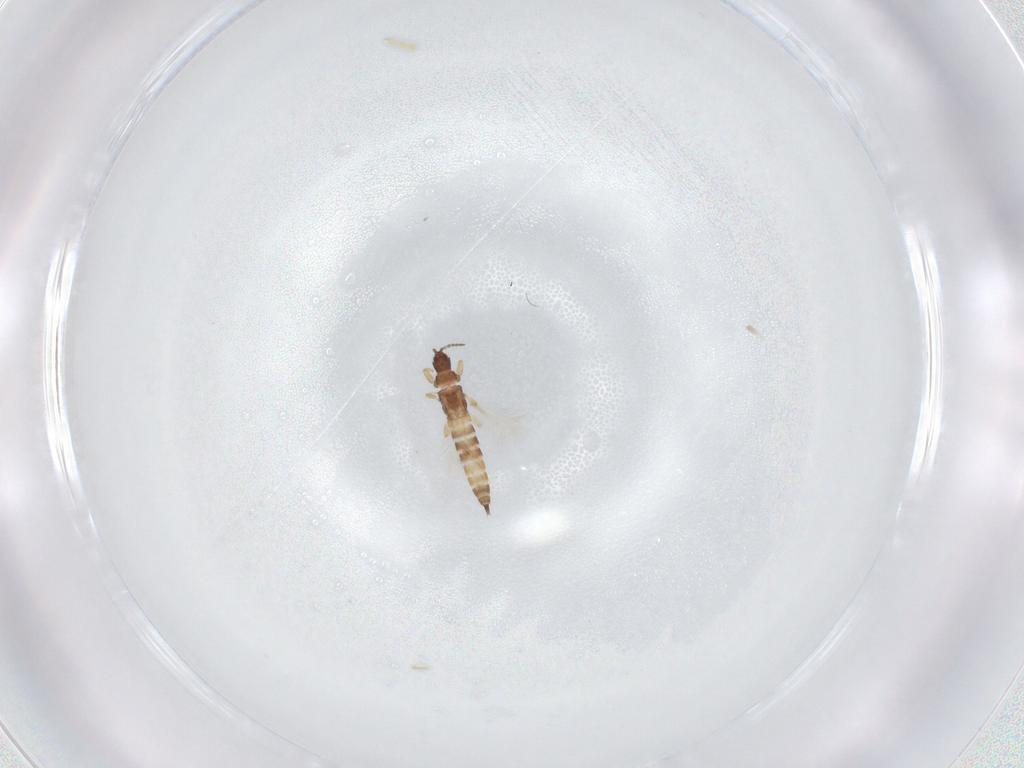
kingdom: Animalia
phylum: Arthropoda
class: Insecta
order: Thysanoptera
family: Phlaeothripidae
